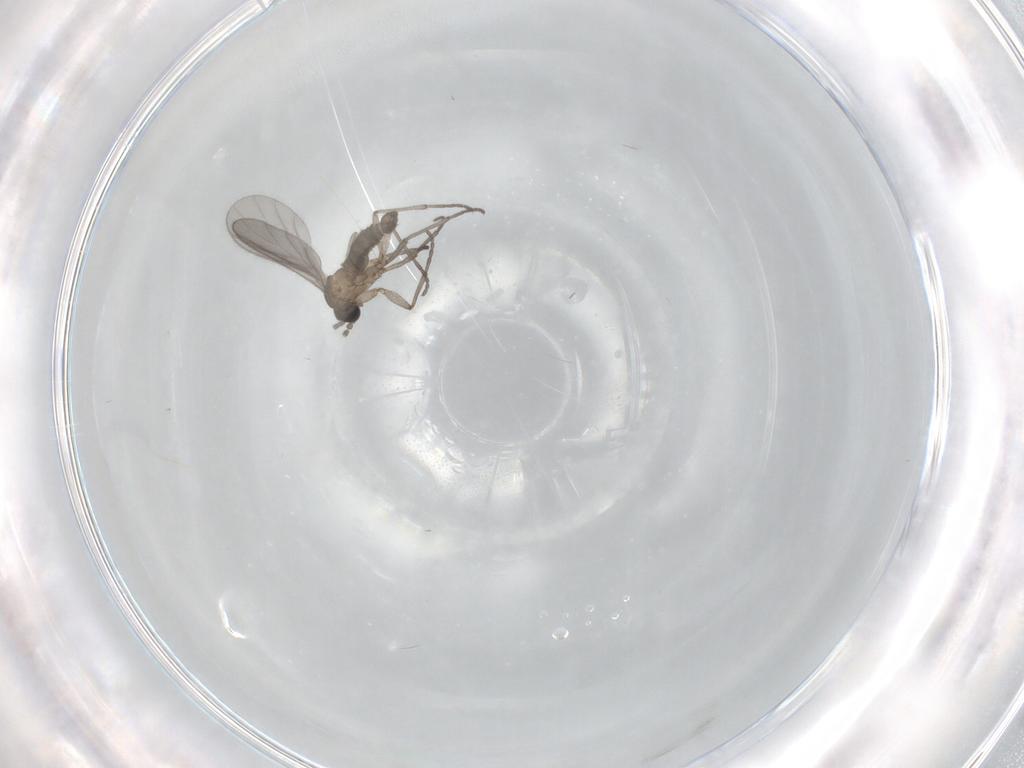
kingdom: Animalia
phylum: Arthropoda
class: Insecta
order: Diptera
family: Sciaridae
